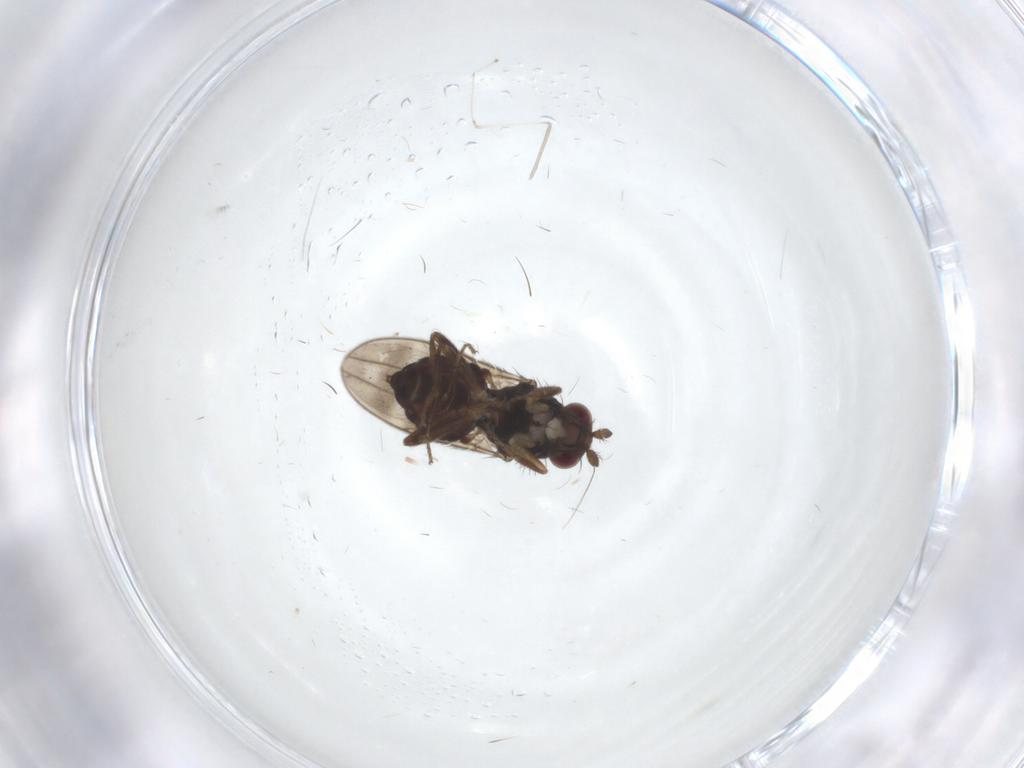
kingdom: Animalia
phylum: Arthropoda
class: Insecta
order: Diptera
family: Sphaeroceridae
